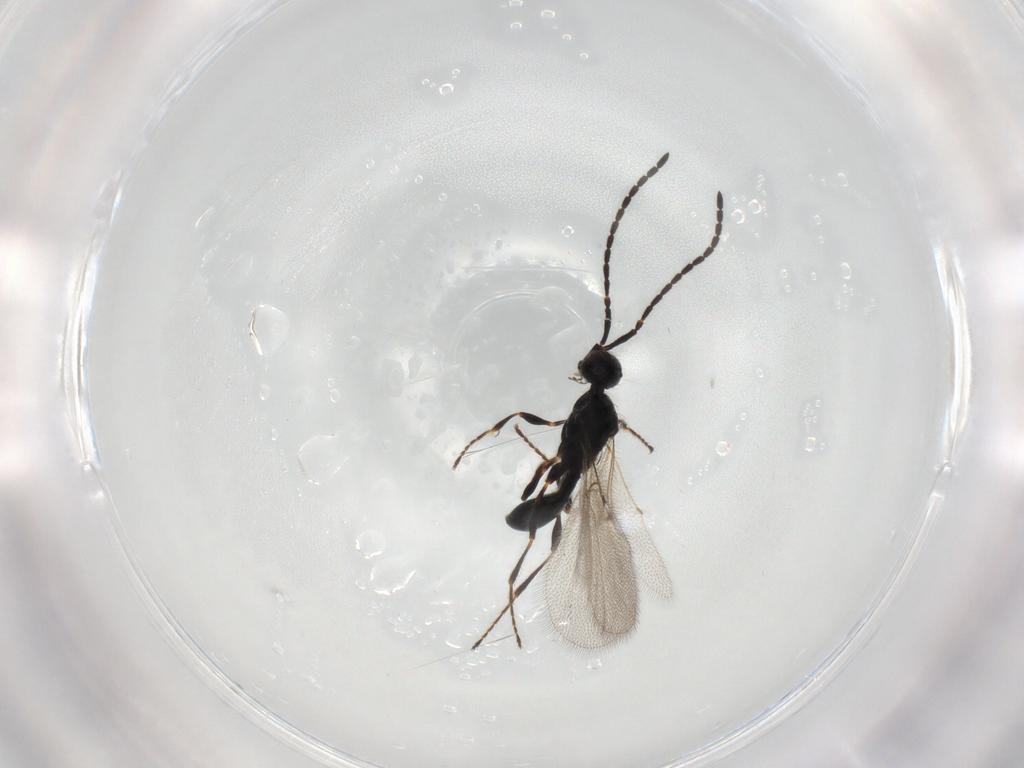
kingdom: Animalia
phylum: Arthropoda
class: Insecta
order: Hymenoptera
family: Diapriidae
